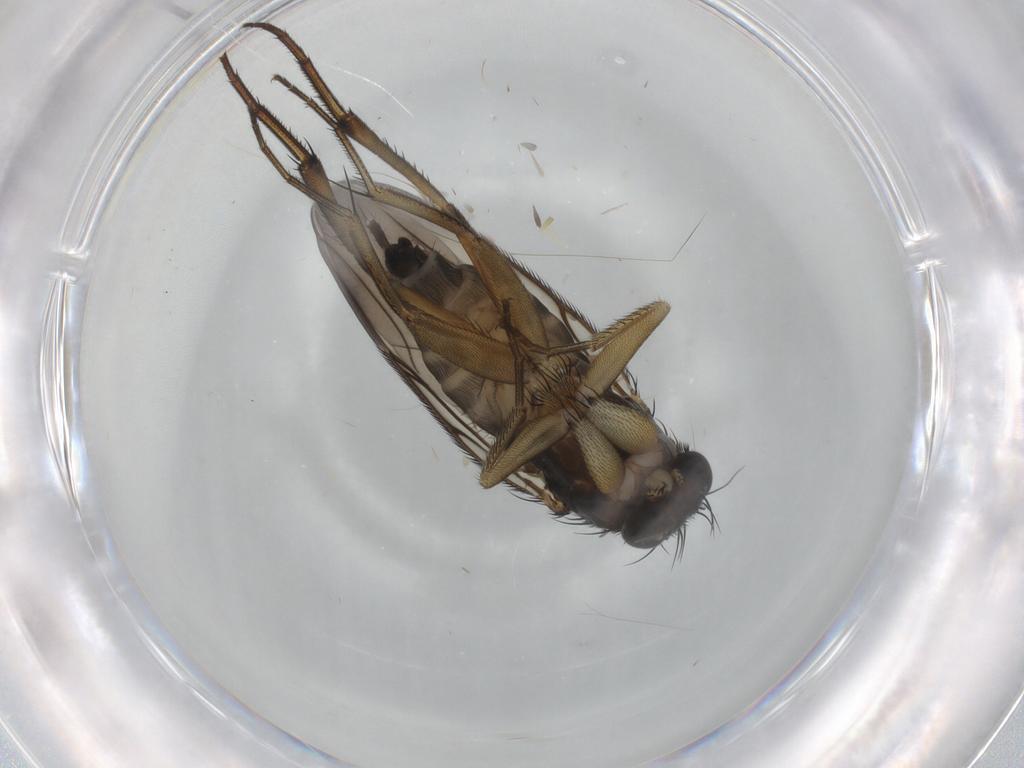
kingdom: Animalia
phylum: Arthropoda
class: Insecta
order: Diptera
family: Phoridae
